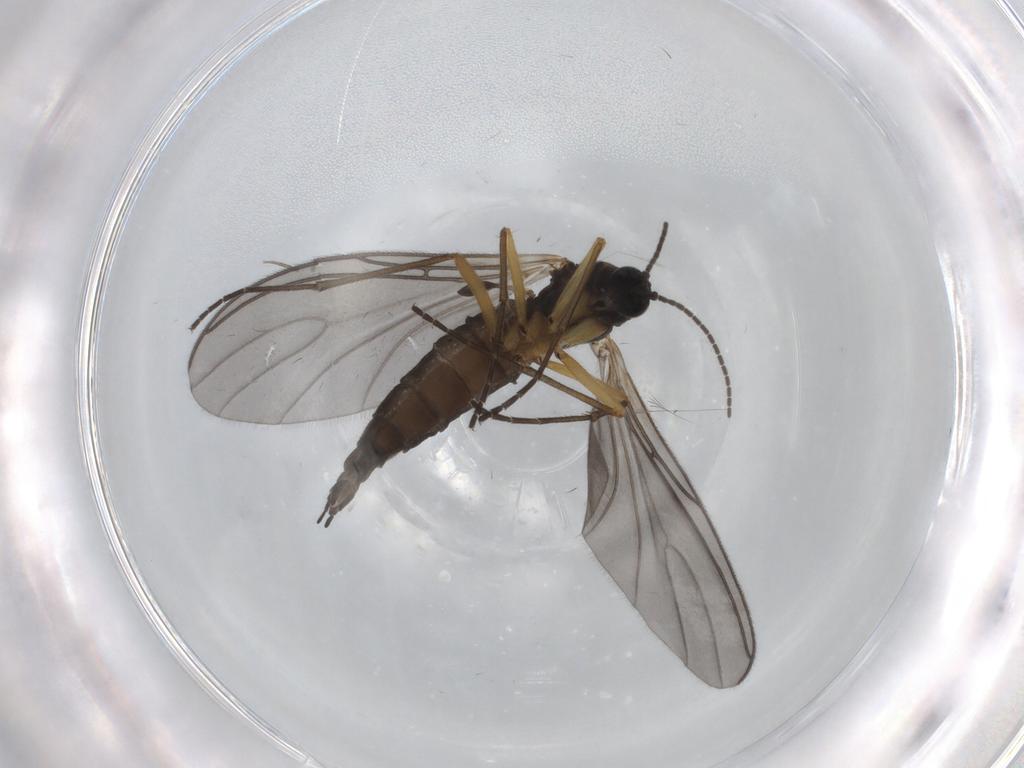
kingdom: Animalia
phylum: Arthropoda
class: Insecta
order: Diptera
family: Sciaridae
